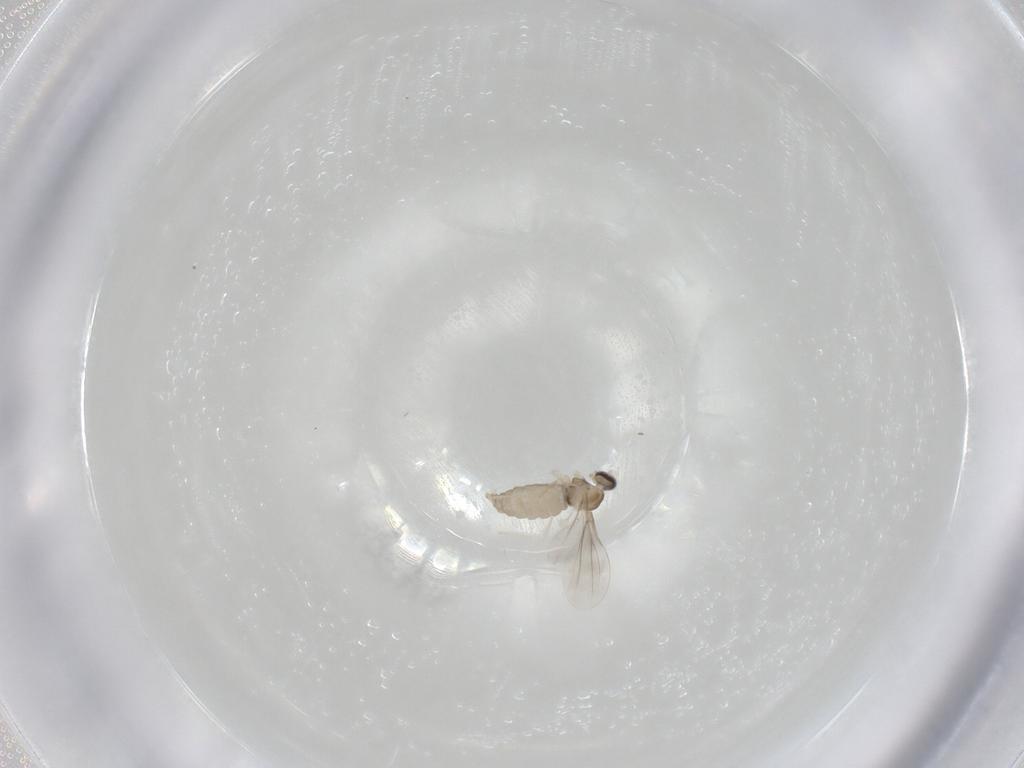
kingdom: Animalia
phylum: Arthropoda
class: Insecta
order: Diptera
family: Cecidomyiidae
